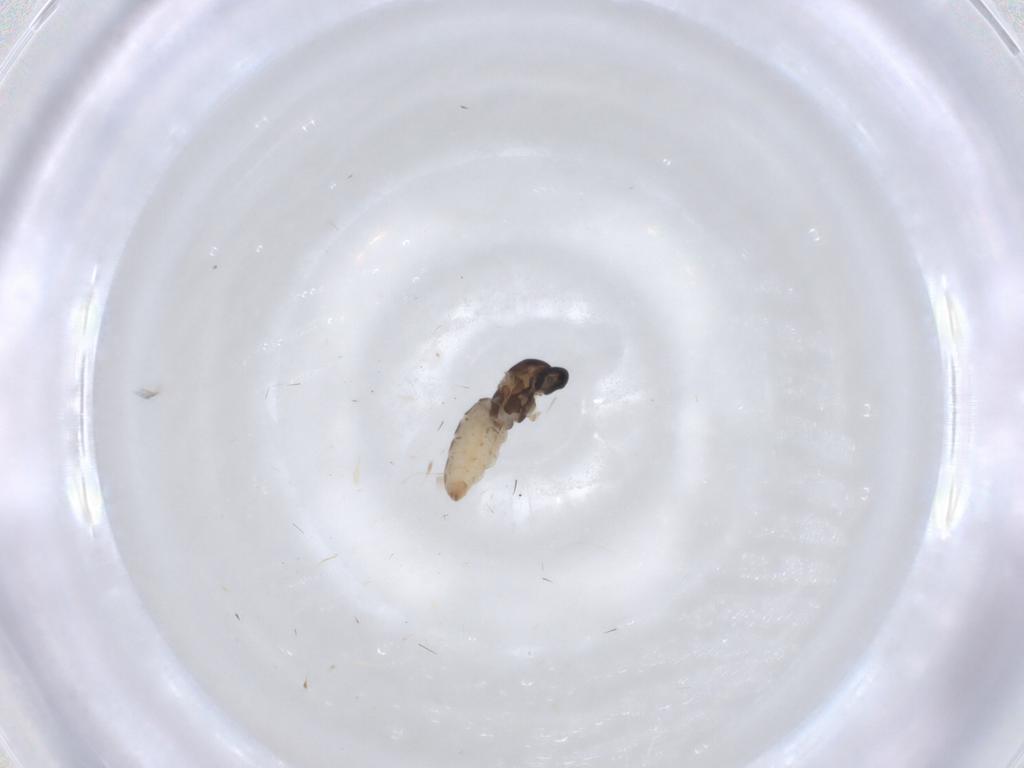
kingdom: Animalia
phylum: Arthropoda
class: Insecta
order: Diptera
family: Cecidomyiidae
